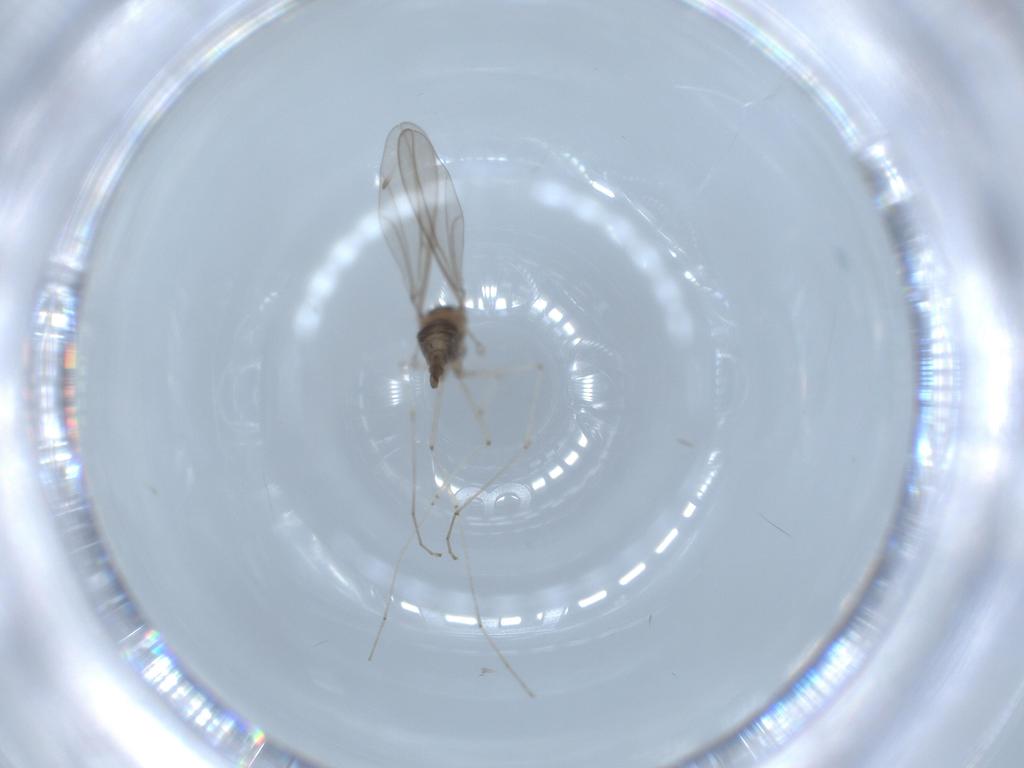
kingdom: Animalia
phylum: Arthropoda
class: Insecta
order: Diptera
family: Cecidomyiidae
